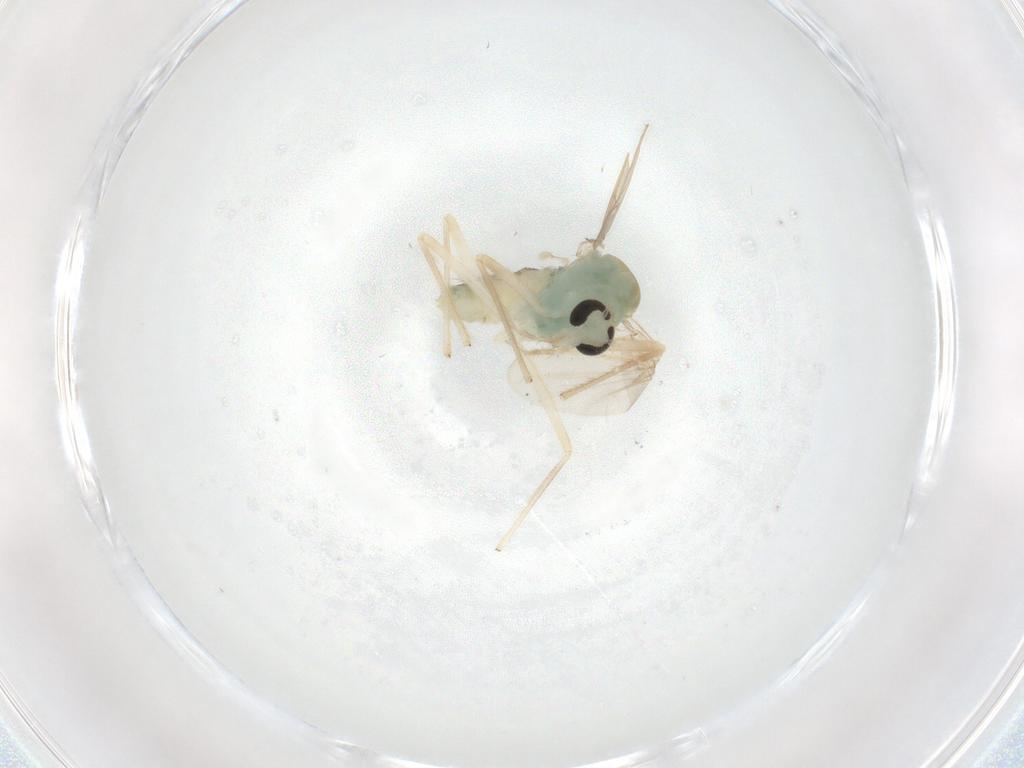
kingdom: Animalia
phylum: Arthropoda
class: Insecta
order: Diptera
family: Chironomidae
